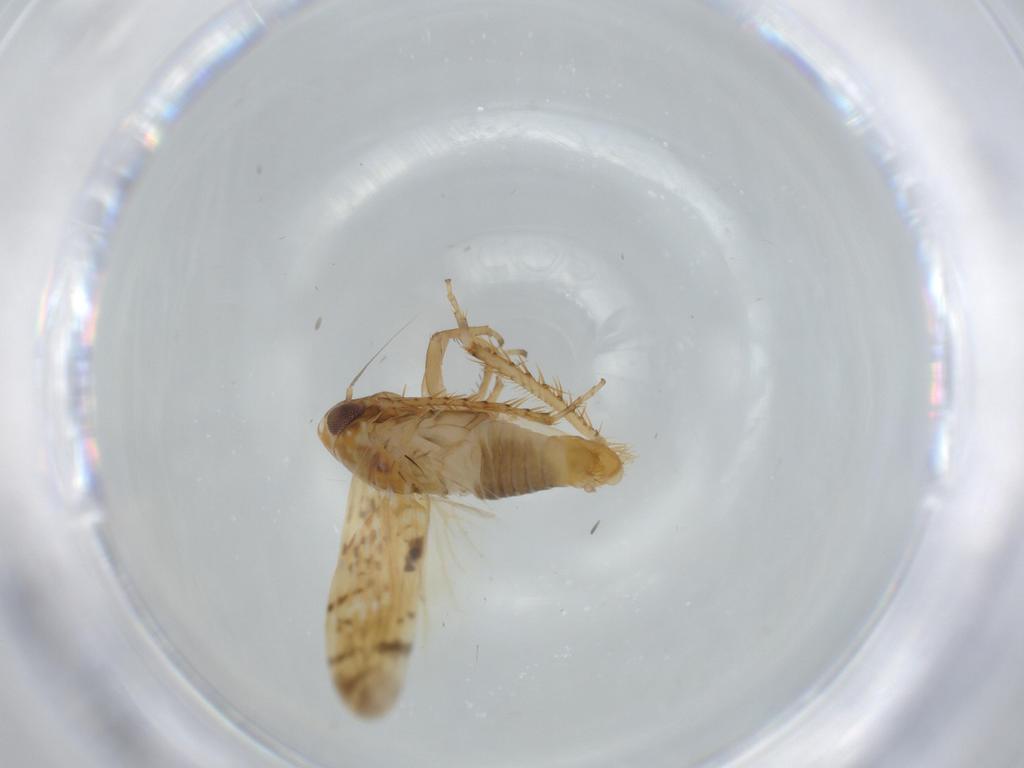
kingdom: Animalia
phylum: Arthropoda
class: Insecta
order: Hemiptera
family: Cicadellidae
